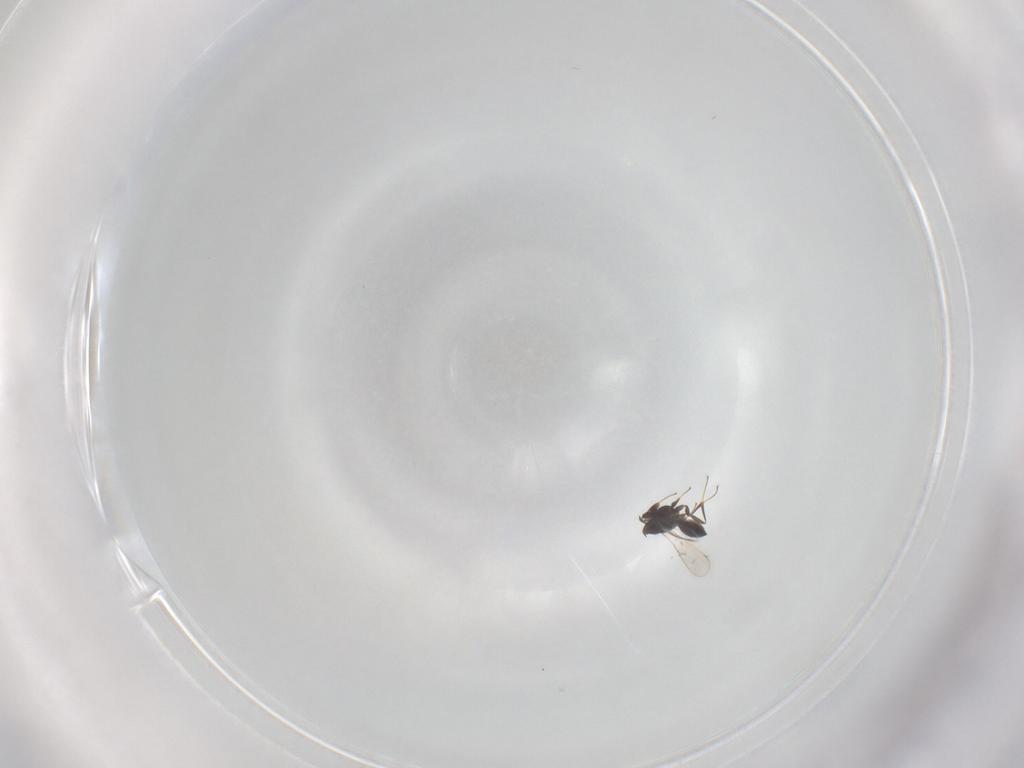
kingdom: Animalia
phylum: Arthropoda
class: Insecta
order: Hymenoptera
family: Scelionidae
